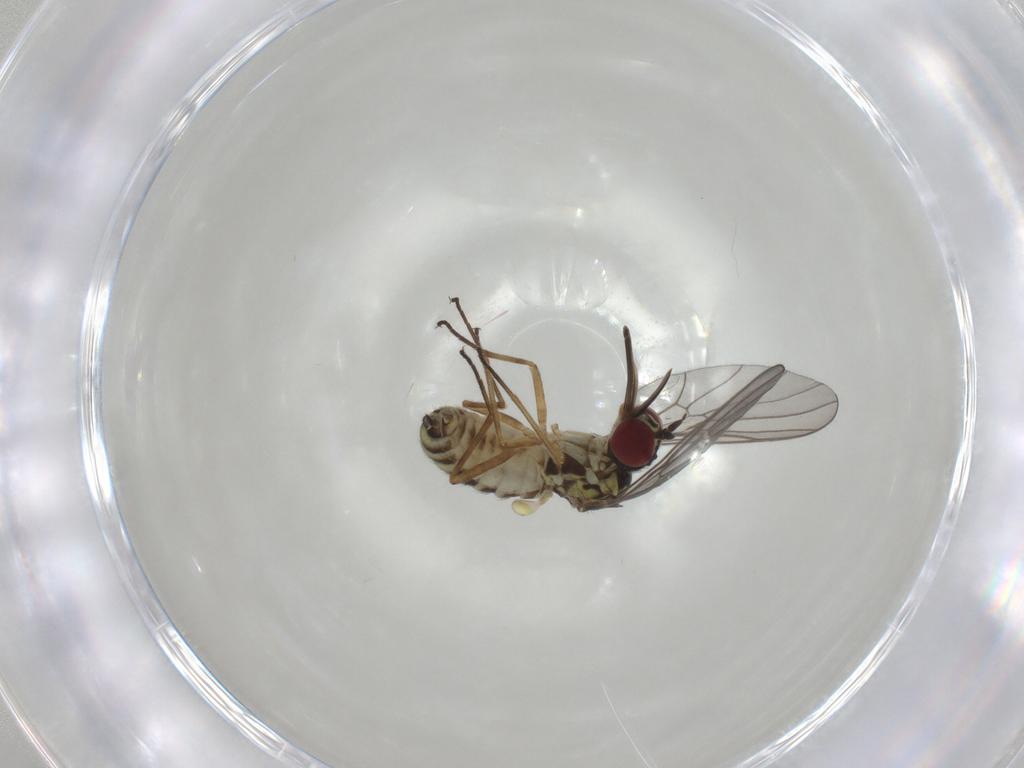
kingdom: Animalia
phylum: Arthropoda
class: Insecta
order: Diptera
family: Bombyliidae
